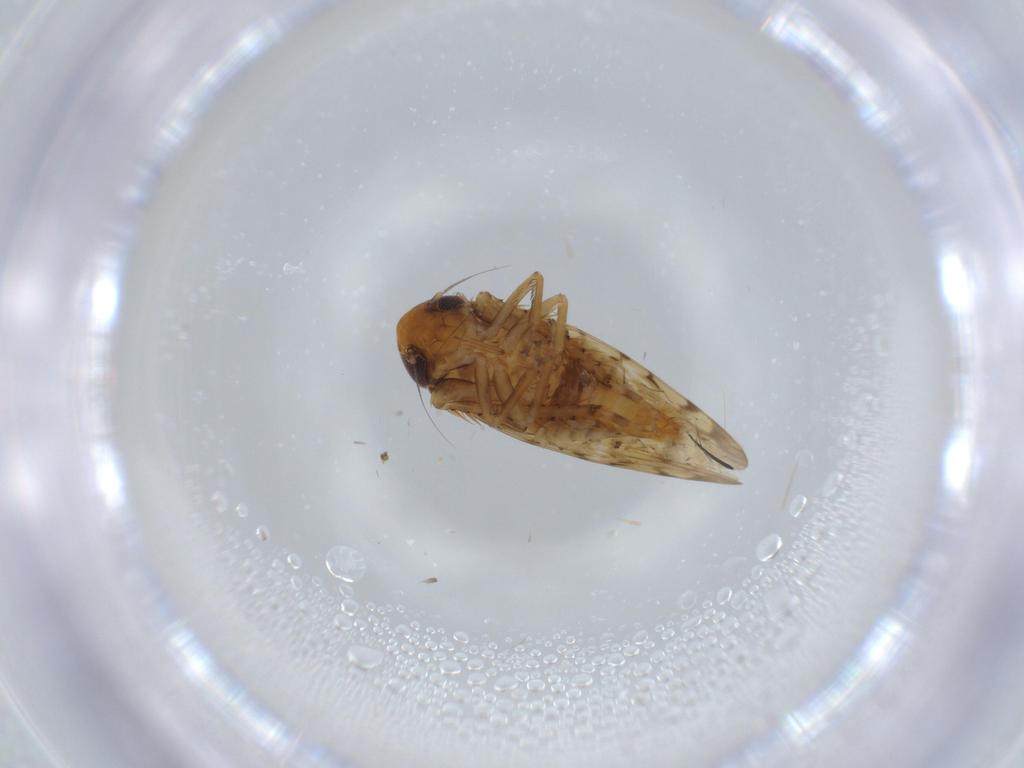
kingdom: Animalia
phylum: Arthropoda
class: Insecta
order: Hemiptera
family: Cicadellidae
